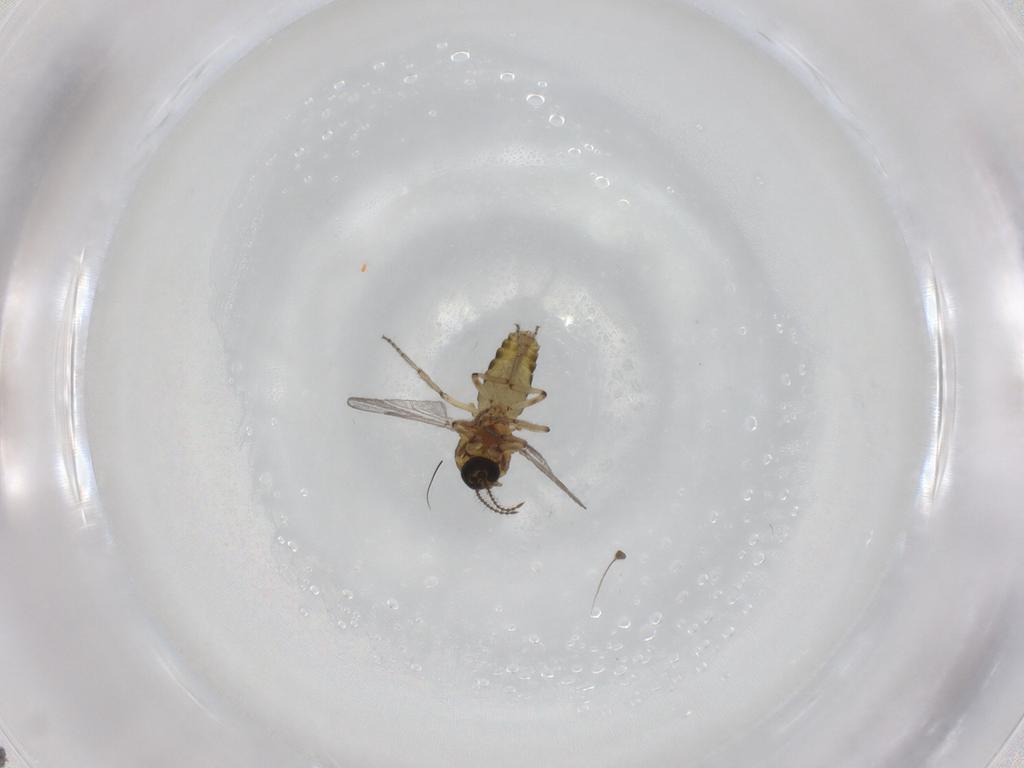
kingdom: Animalia
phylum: Arthropoda
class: Insecta
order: Diptera
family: Ceratopogonidae
